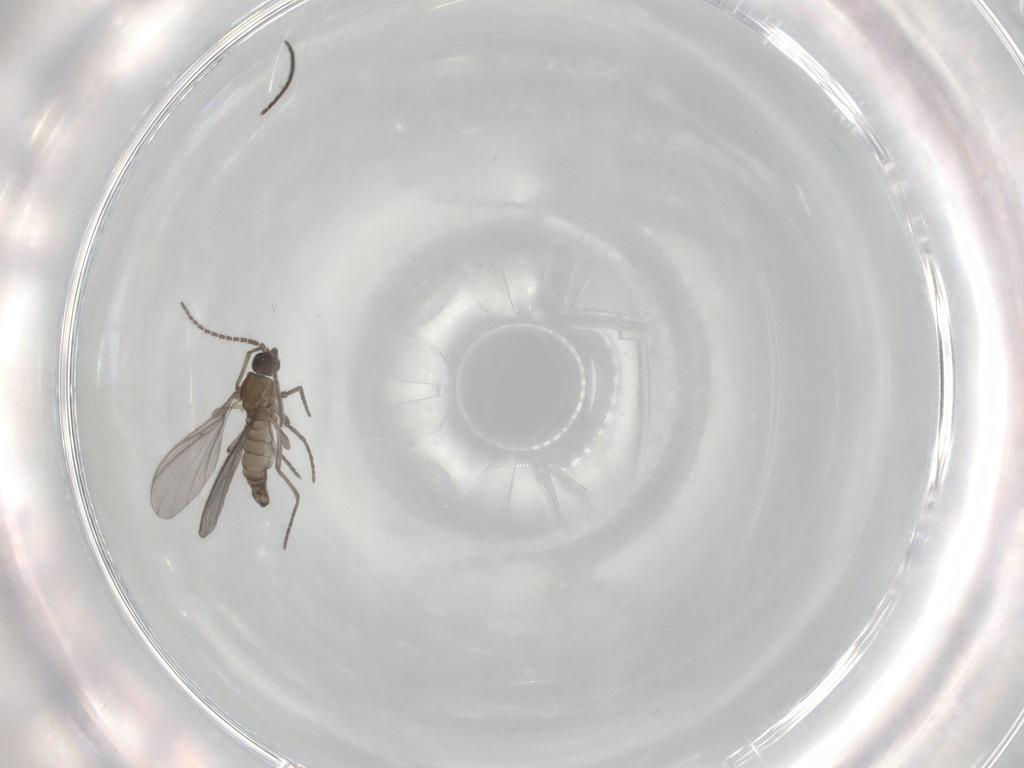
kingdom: Animalia
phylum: Arthropoda
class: Insecta
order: Diptera
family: Sciaridae
